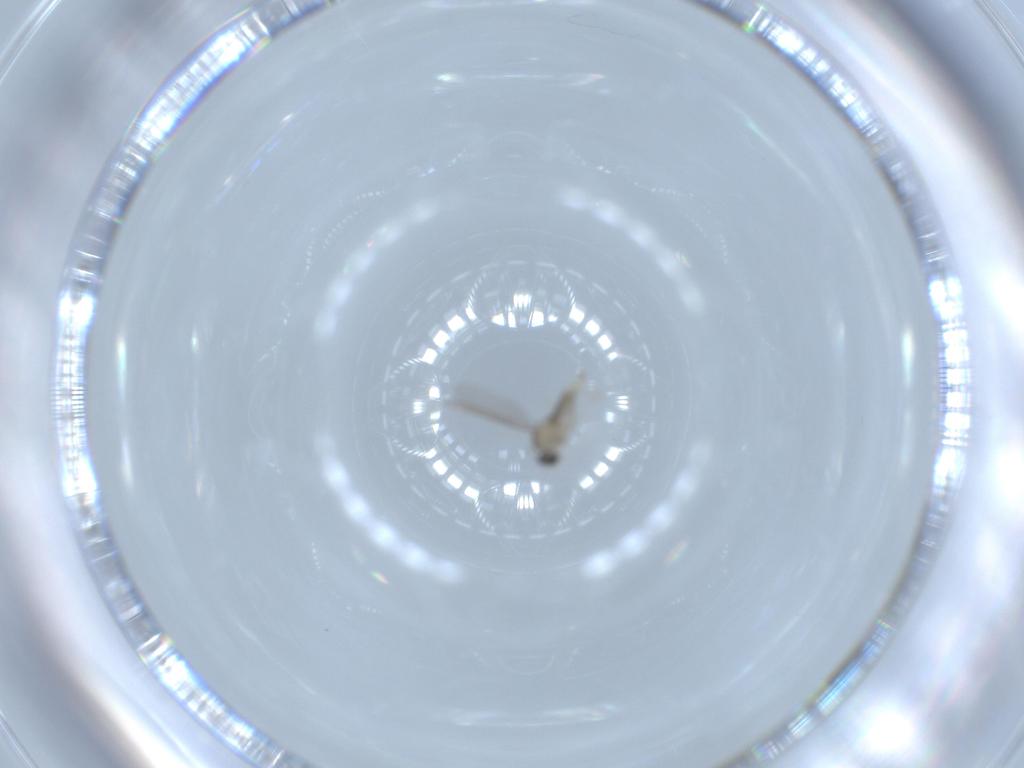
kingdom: Animalia
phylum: Arthropoda
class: Insecta
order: Diptera
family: Cecidomyiidae
